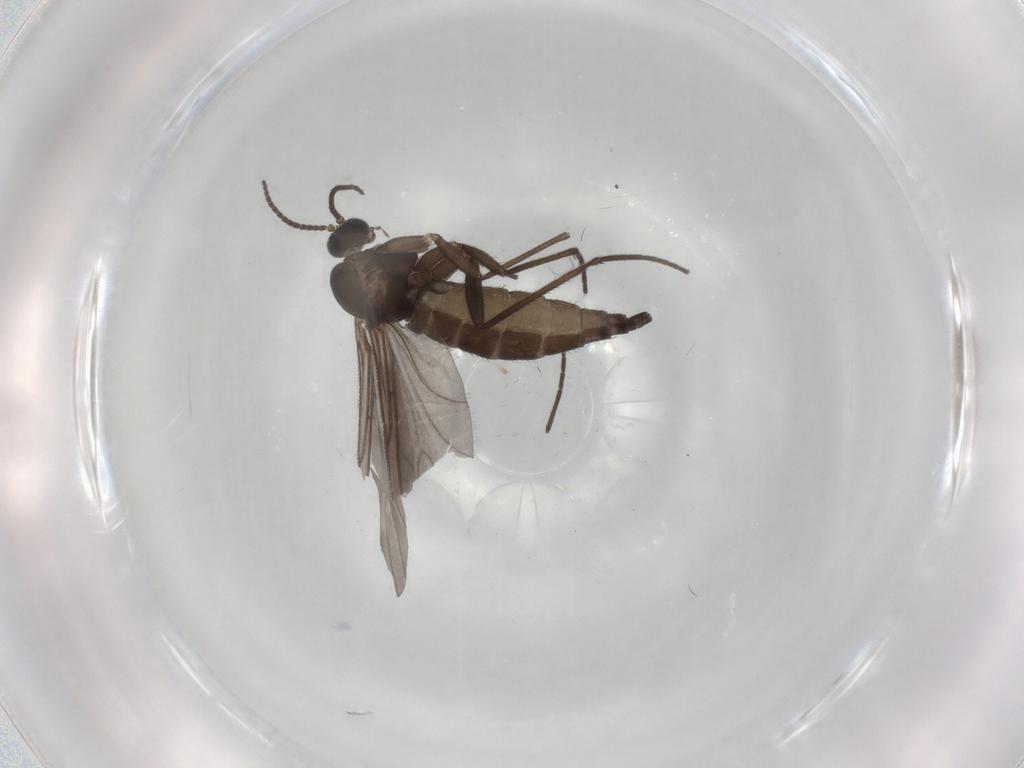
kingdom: Animalia
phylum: Arthropoda
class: Insecta
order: Diptera
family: Sciaridae
